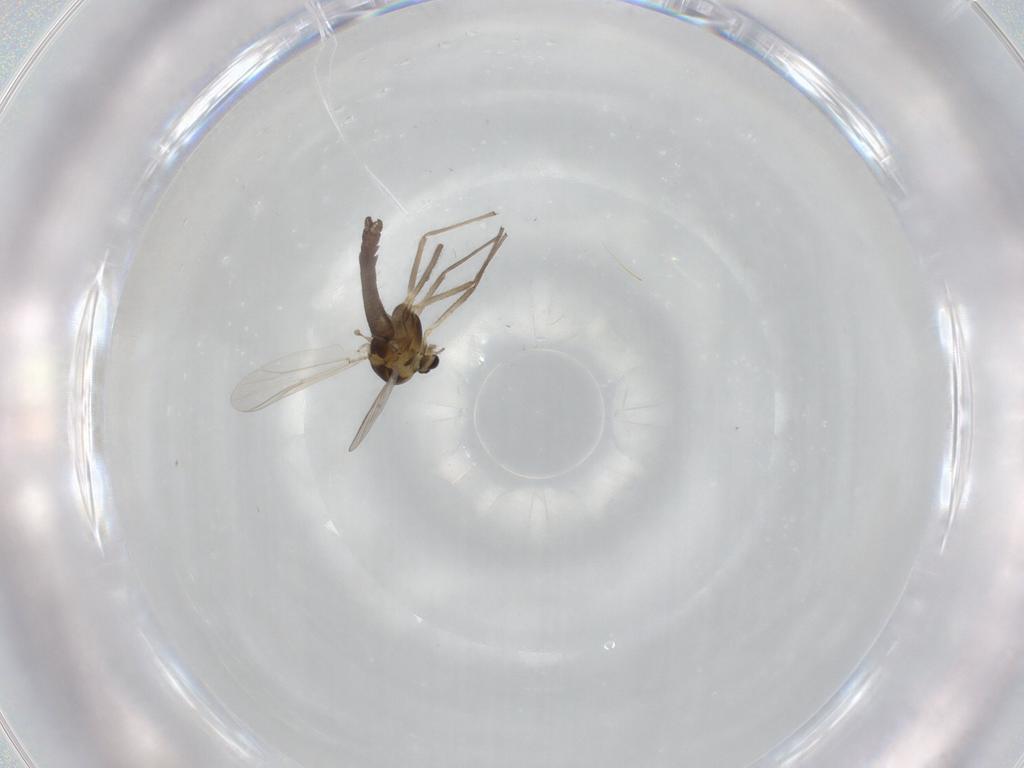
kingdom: Animalia
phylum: Arthropoda
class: Insecta
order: Diptera
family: Chironomidae
